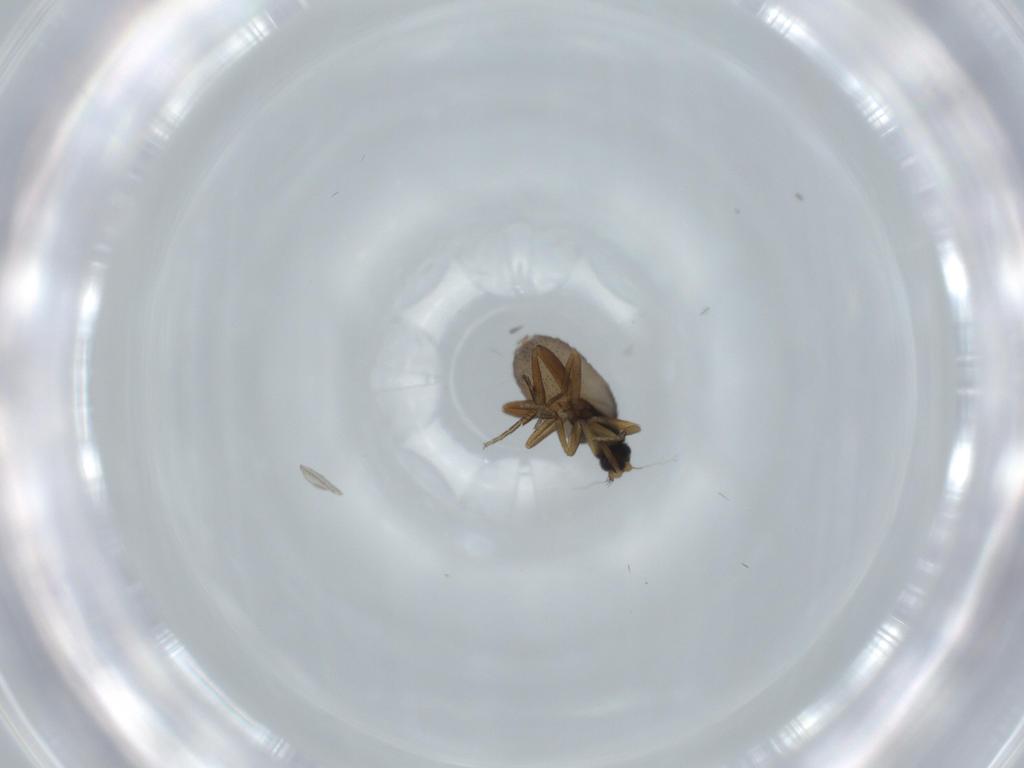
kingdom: Animalia
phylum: Arthropoda
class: Insecta
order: Diptera
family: Phoridae
